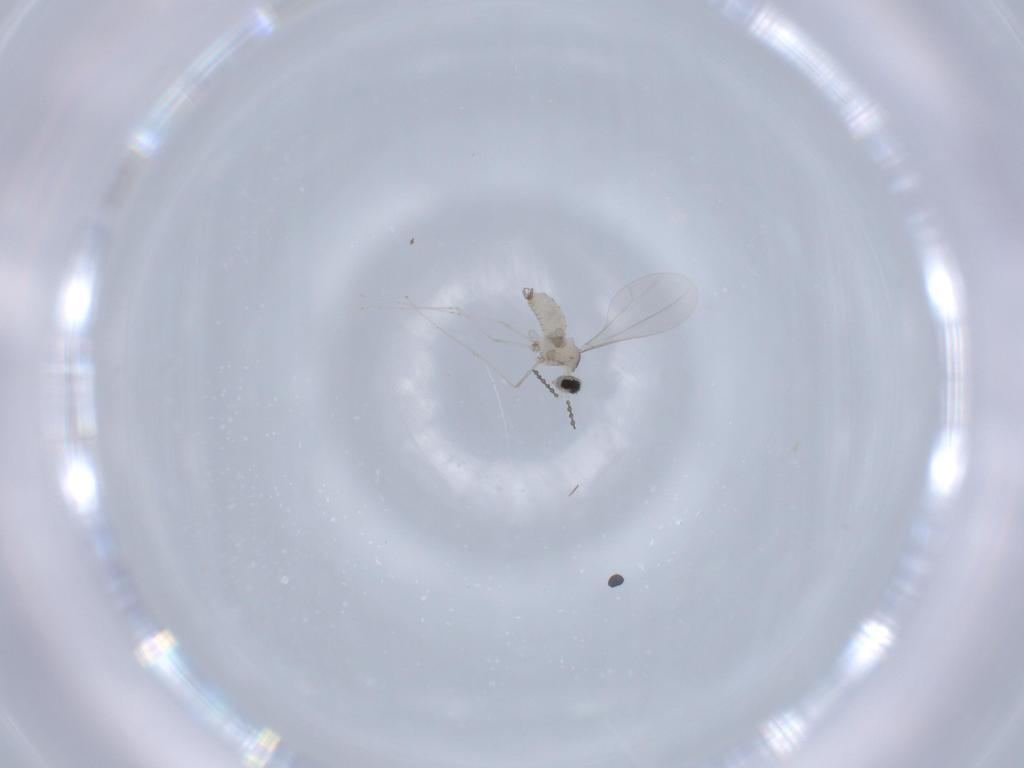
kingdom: Animalia
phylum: Arthropoda
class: Insecta
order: Diptera
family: Cecidomyiidae
